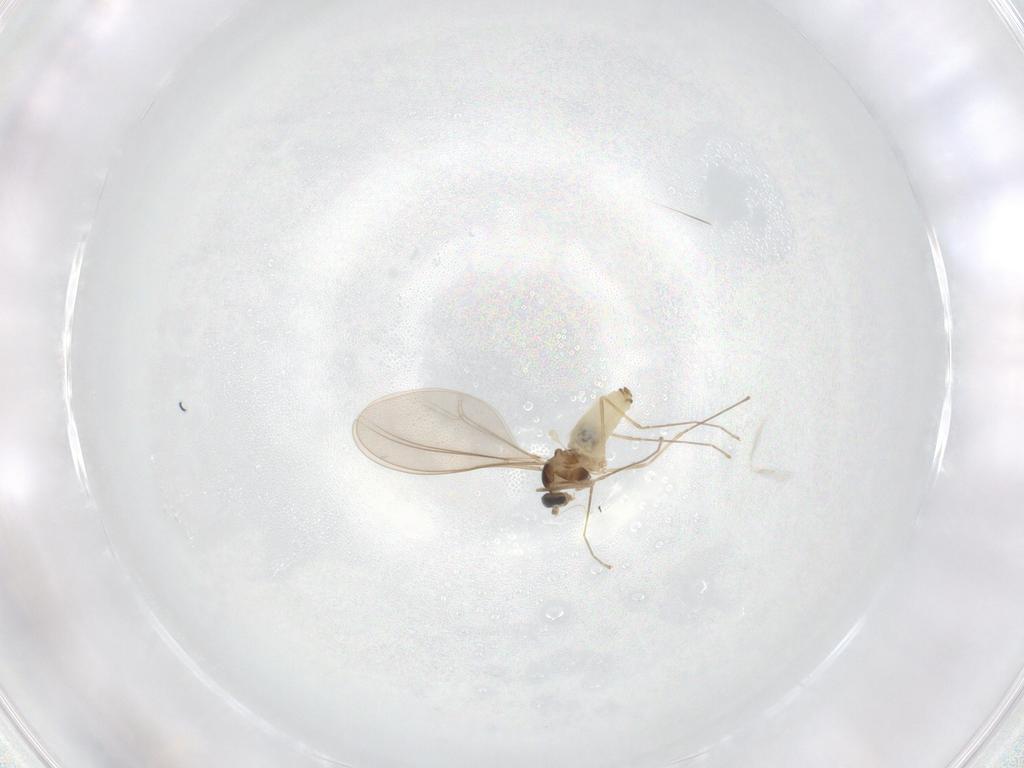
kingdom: Animalia
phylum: Arthropoda
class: Insecta
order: Diptera
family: Cecidomyiidae
